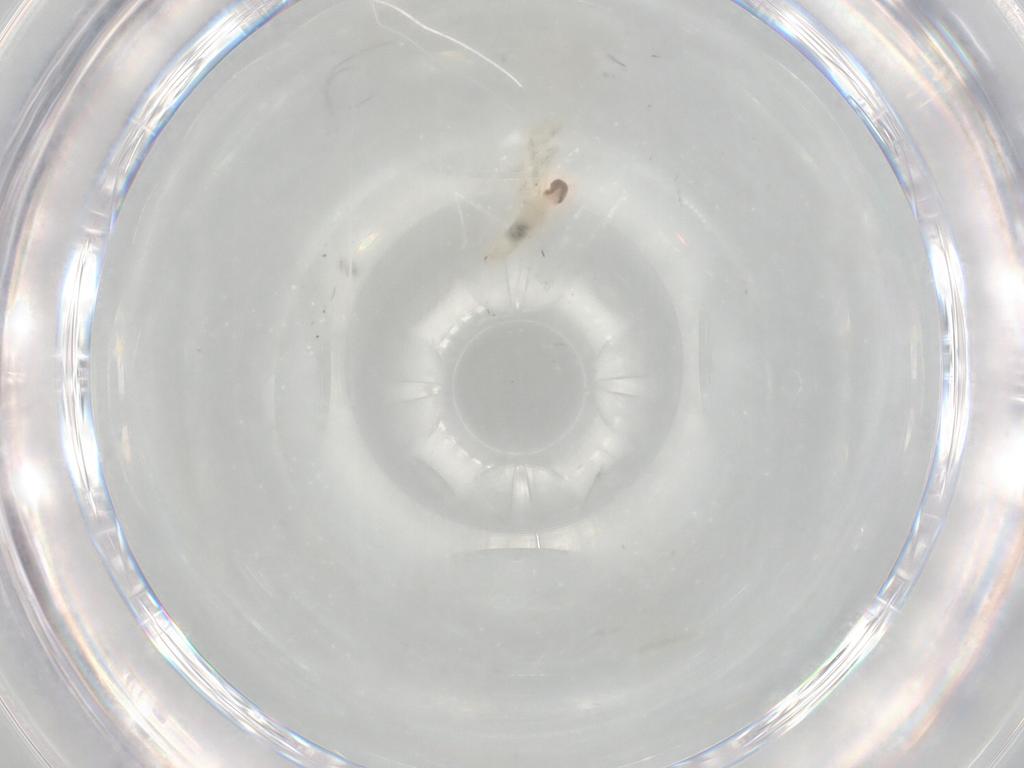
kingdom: Animalia
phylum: Arthropoda
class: Insecta
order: Diptera
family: Cecidomyiidae
